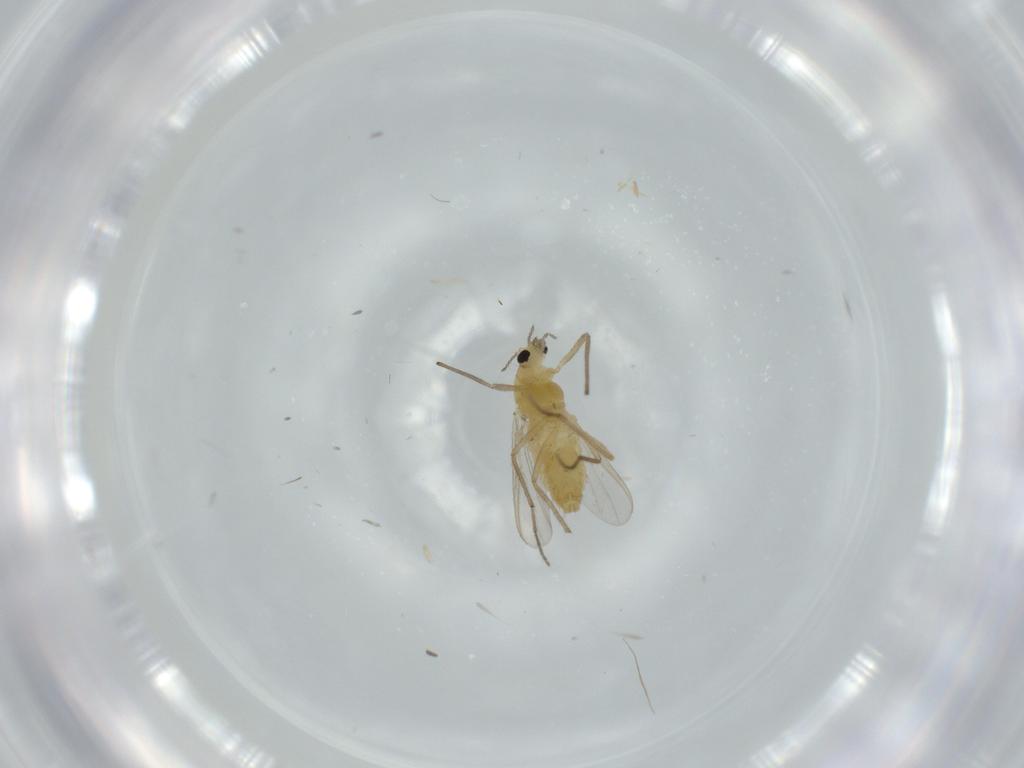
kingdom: Animalia
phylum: Arthropoda
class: Insecta
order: Diptera
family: Chironomidae
